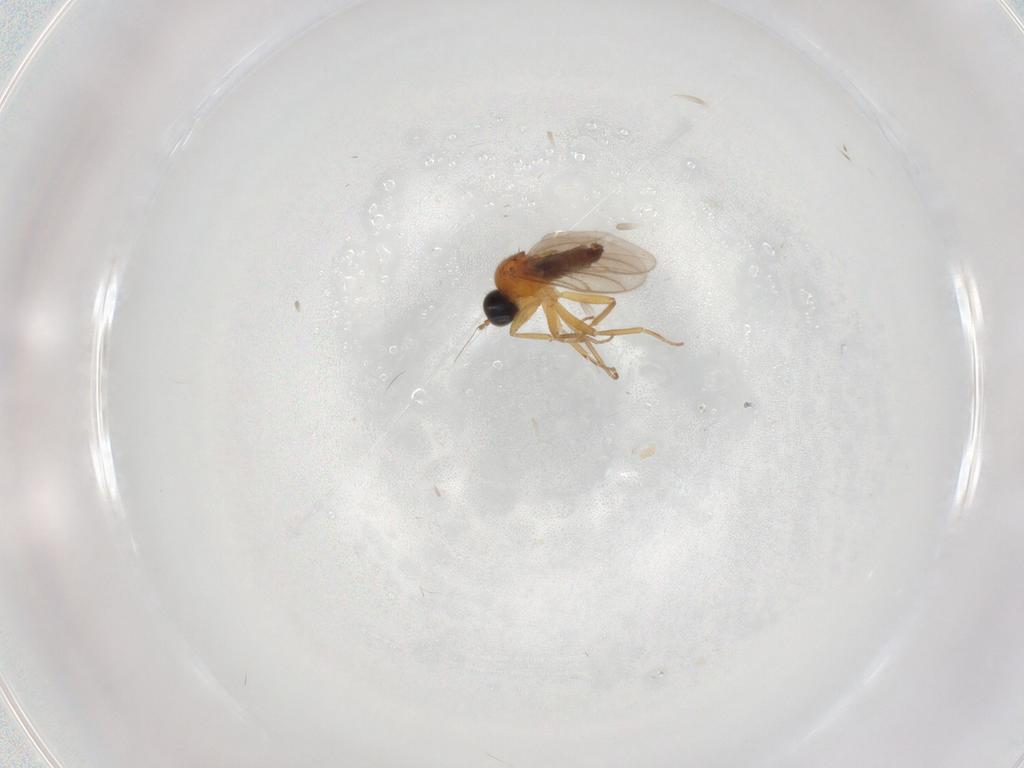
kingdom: Animalia
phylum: Arthropoda
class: Insecta
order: Diptera
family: Hybotidae
